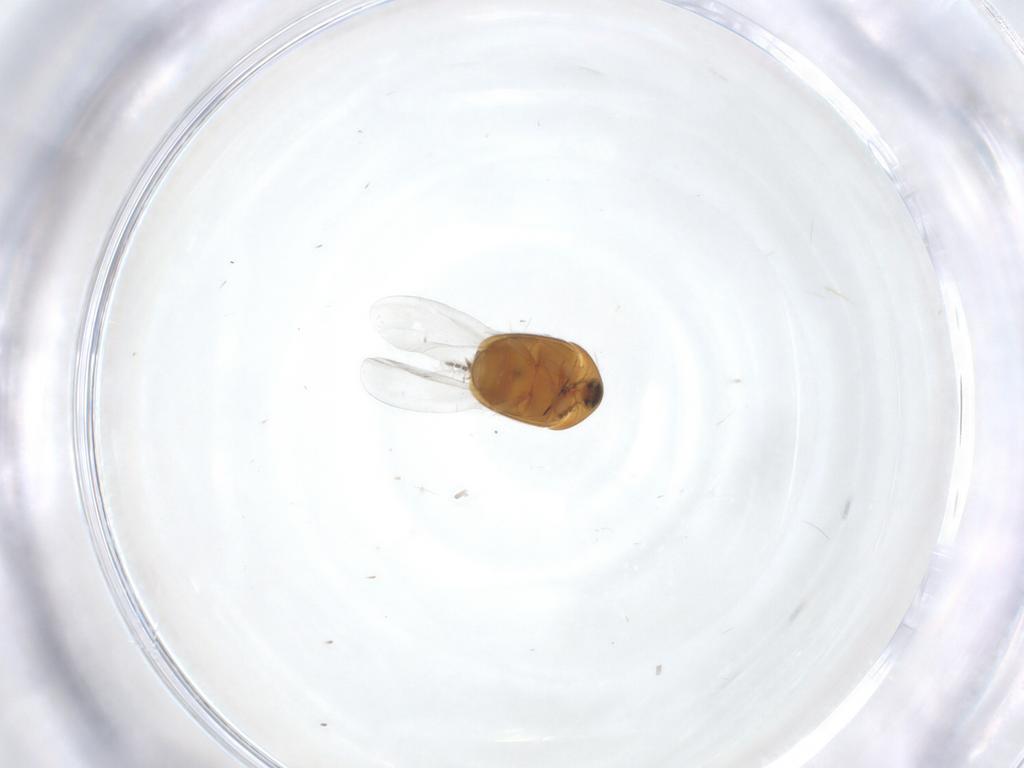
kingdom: Animalia
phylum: Arthropoda
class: Insecta
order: Coleoptera
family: Corylophidae
